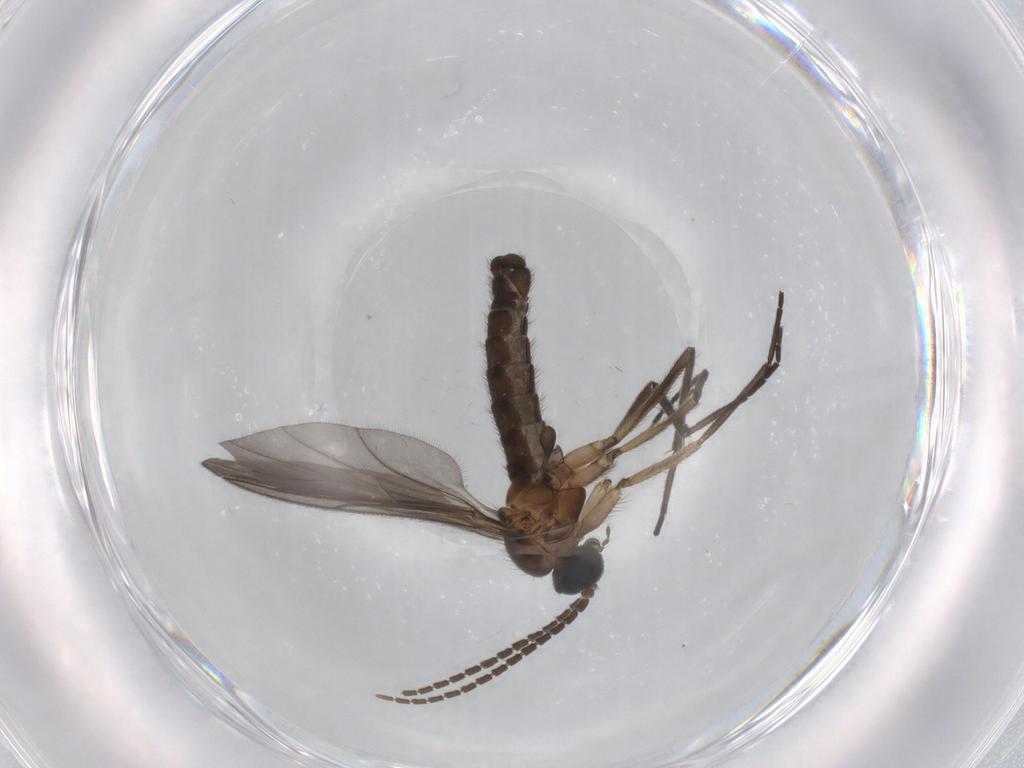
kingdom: Animalia
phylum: Arthropoda
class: Insecta
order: Diptera
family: Sciaridae
